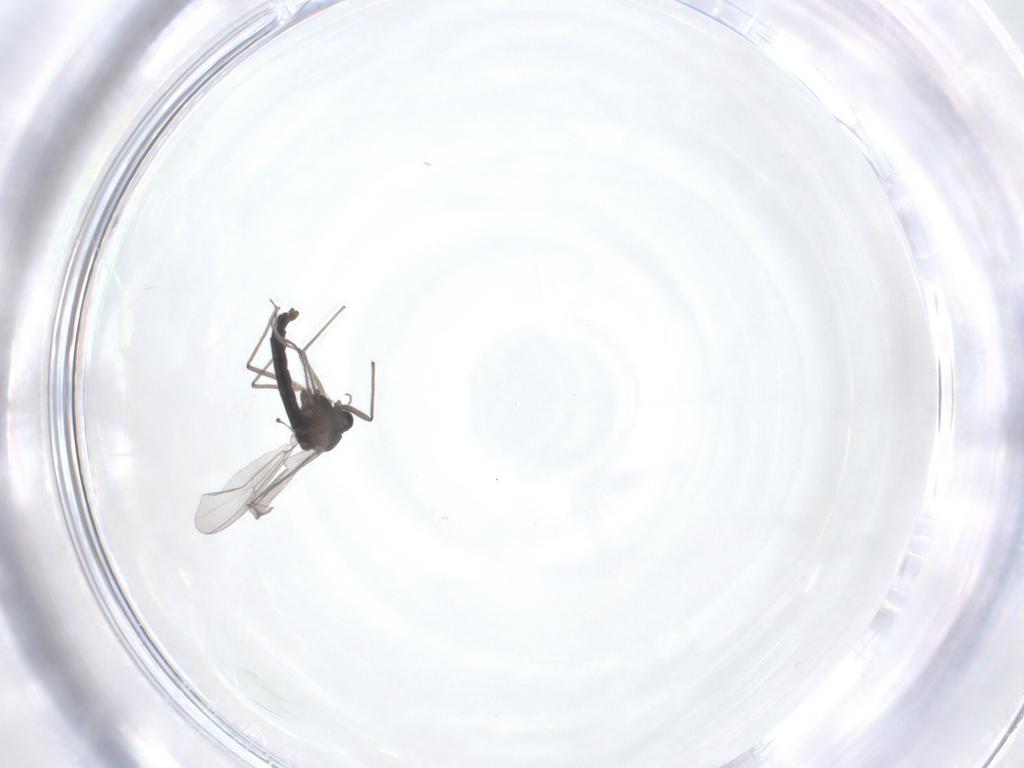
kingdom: Animalia
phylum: Arthropoda
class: Insecta
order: Diptera
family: Chironomidae
